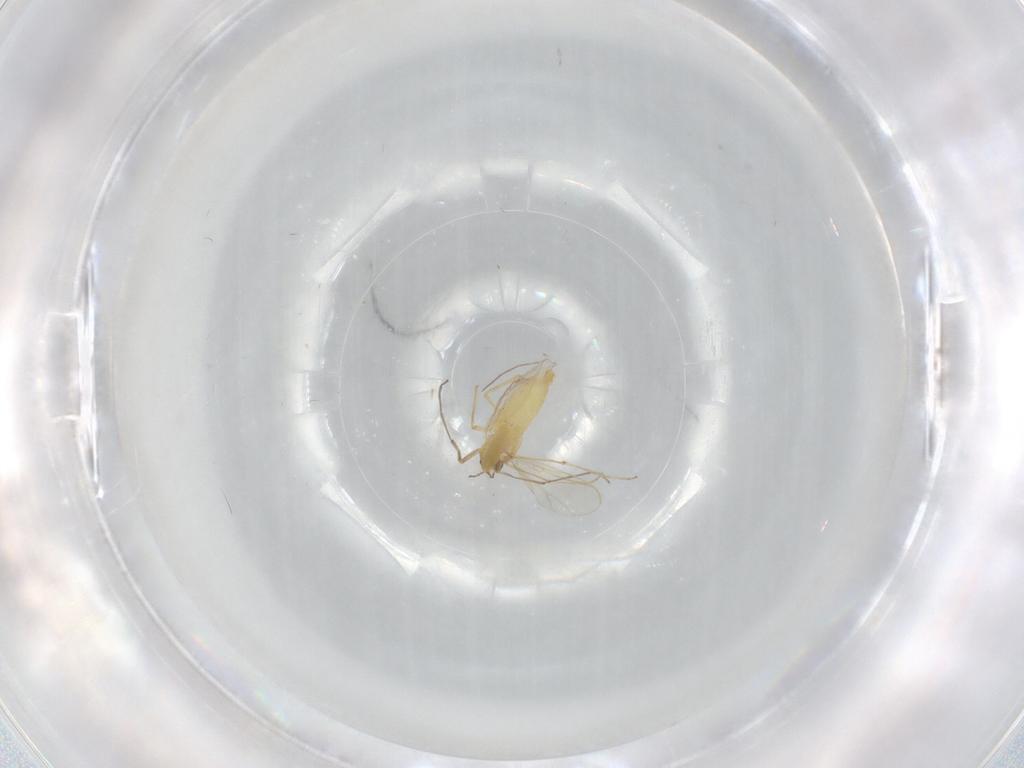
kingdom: Animalia
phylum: Arthropoda
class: Insecta
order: Diptera
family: Chironomidae
